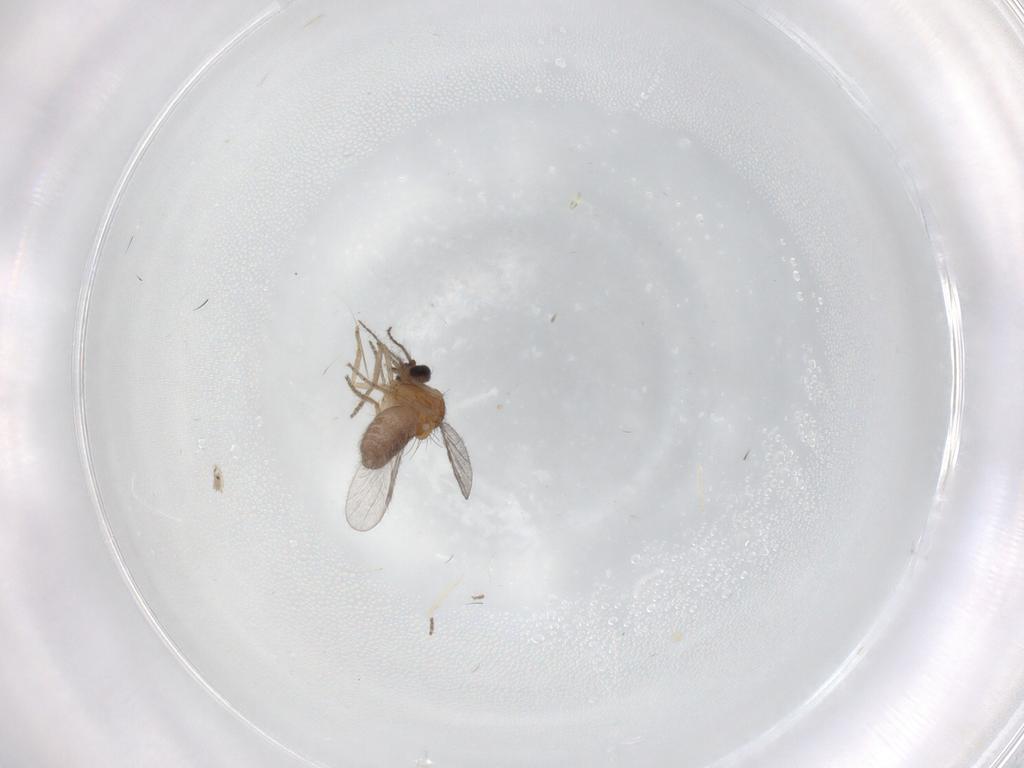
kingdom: Animalia
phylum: Arthropoda
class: Insecta
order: Diptera
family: Ceratopogonidae
